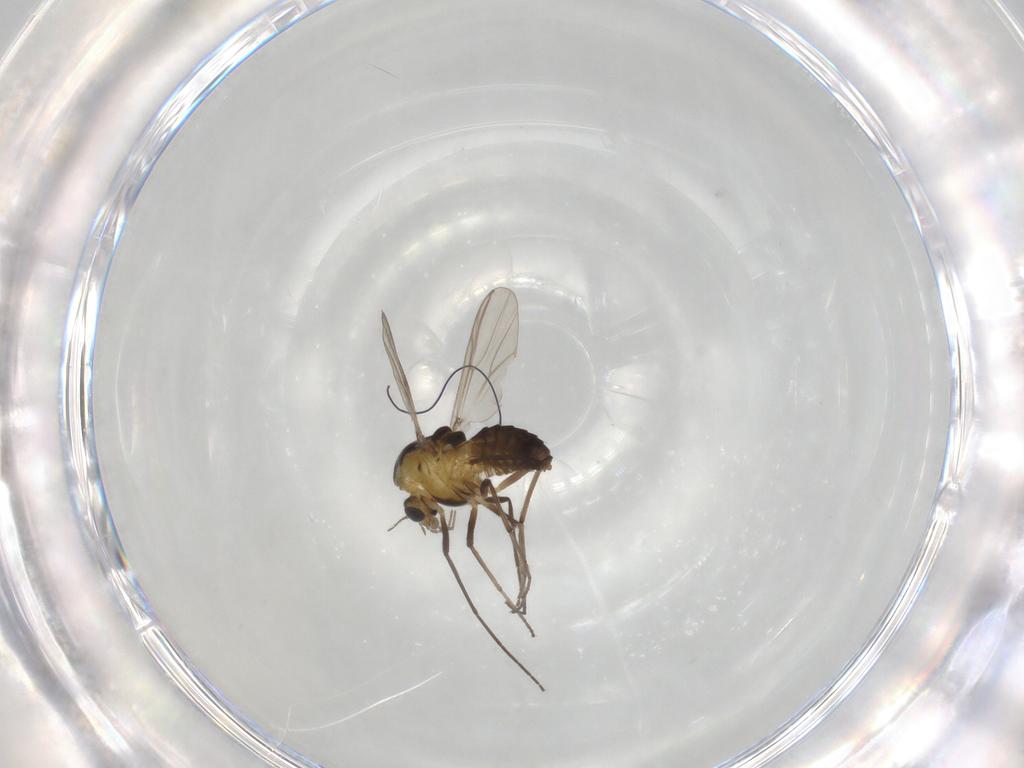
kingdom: Animalia
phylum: Arthropoda
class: Insecta
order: Diptera
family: Chironomidae
